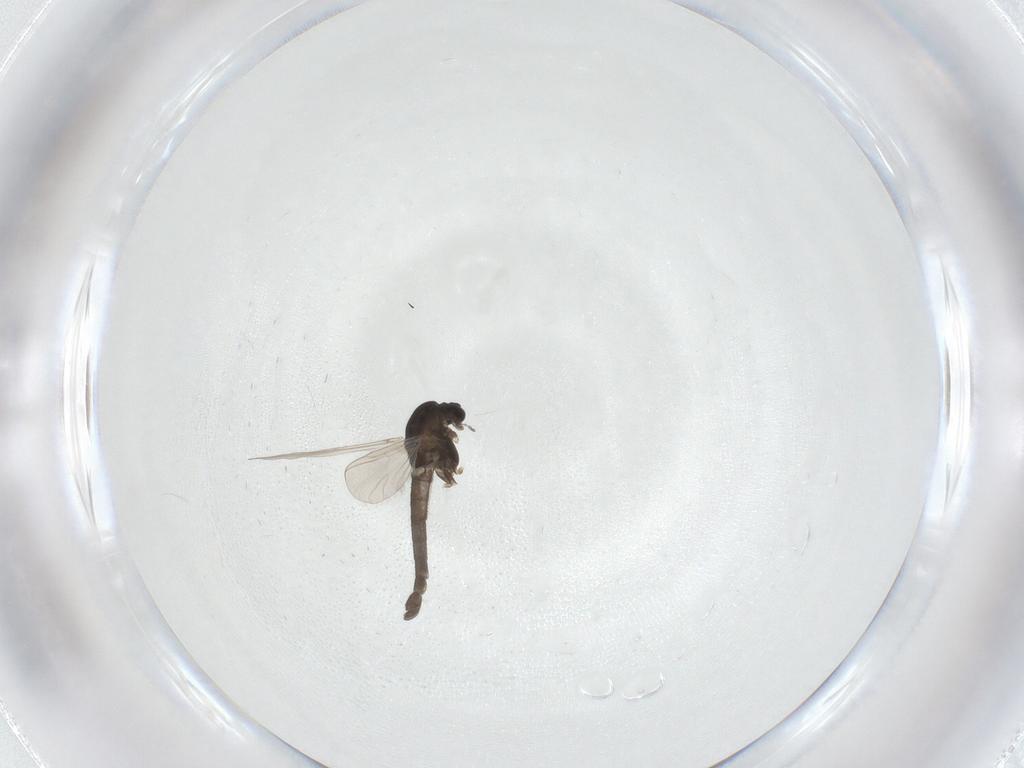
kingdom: Animalia
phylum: Arthropoda
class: Insecta
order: Diptera
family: Chironomidae
